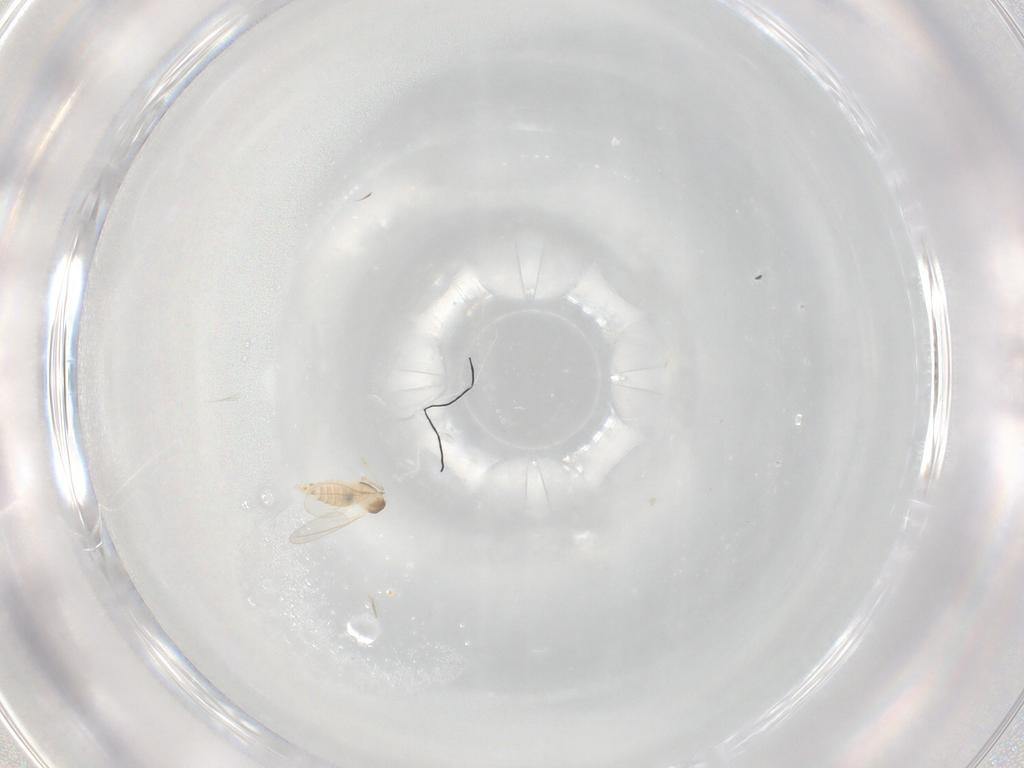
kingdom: Animalia
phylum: Arthropoda
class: Insecta
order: Diptera
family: Cecidomyiidae
